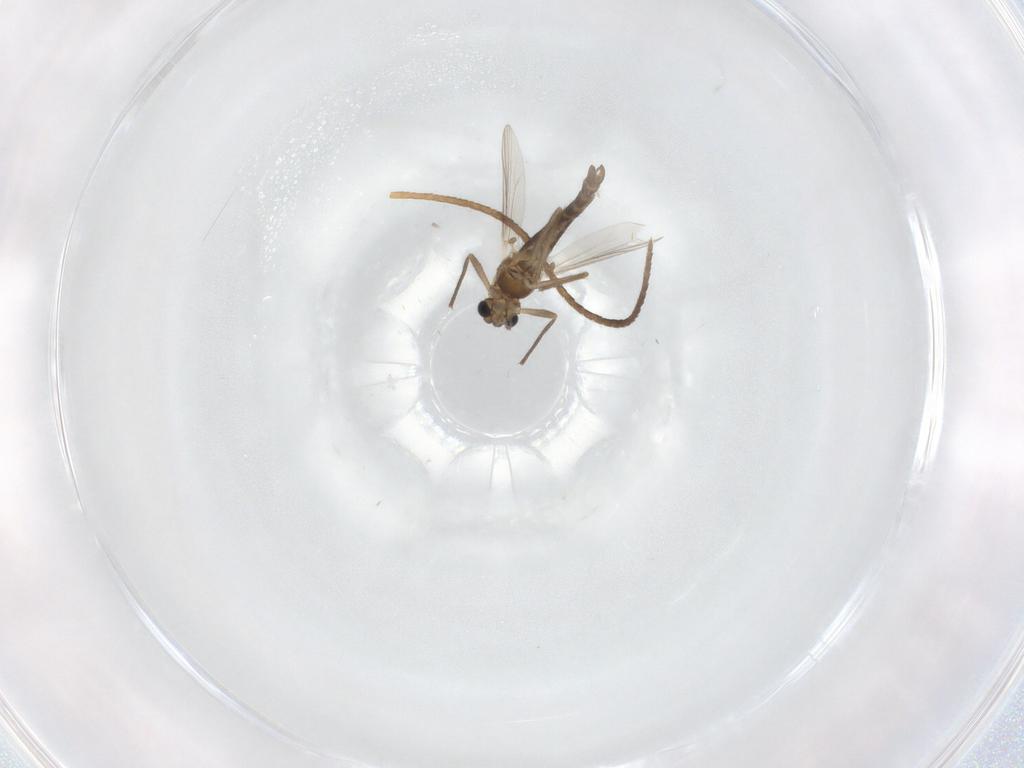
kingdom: Animalia
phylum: Arthropoda
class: Insecta
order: Diptera
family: Chironomidae
